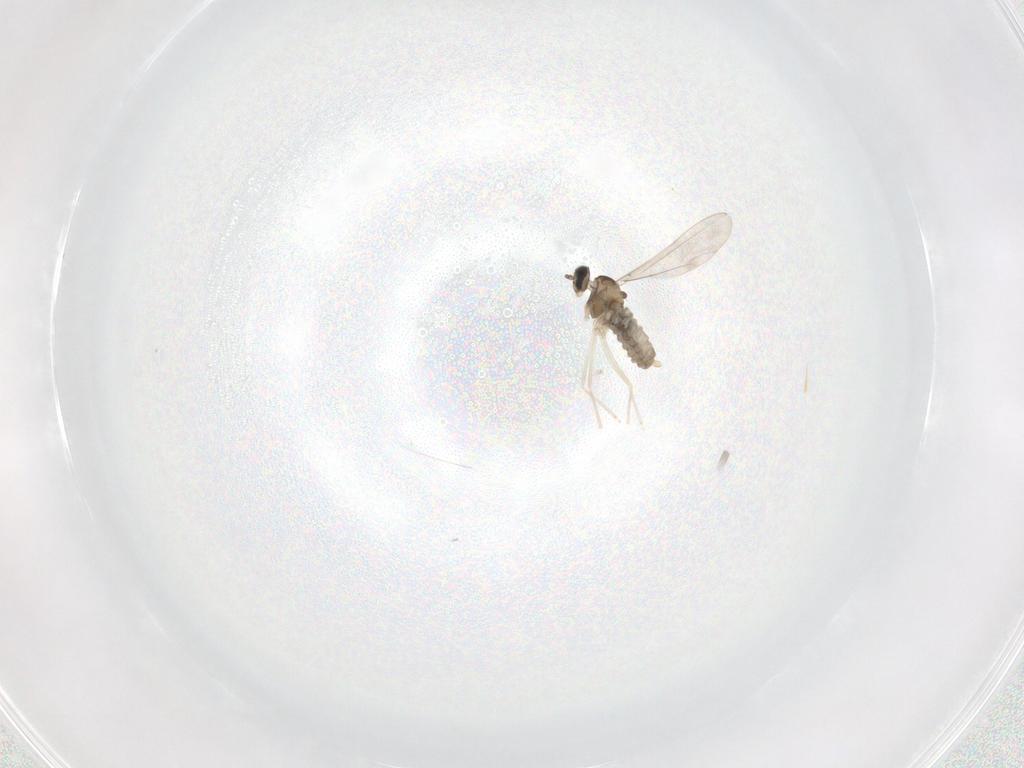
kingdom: Animalia
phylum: Arthropoda
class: Insecta
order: Diptera
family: Cecidomyiidae
